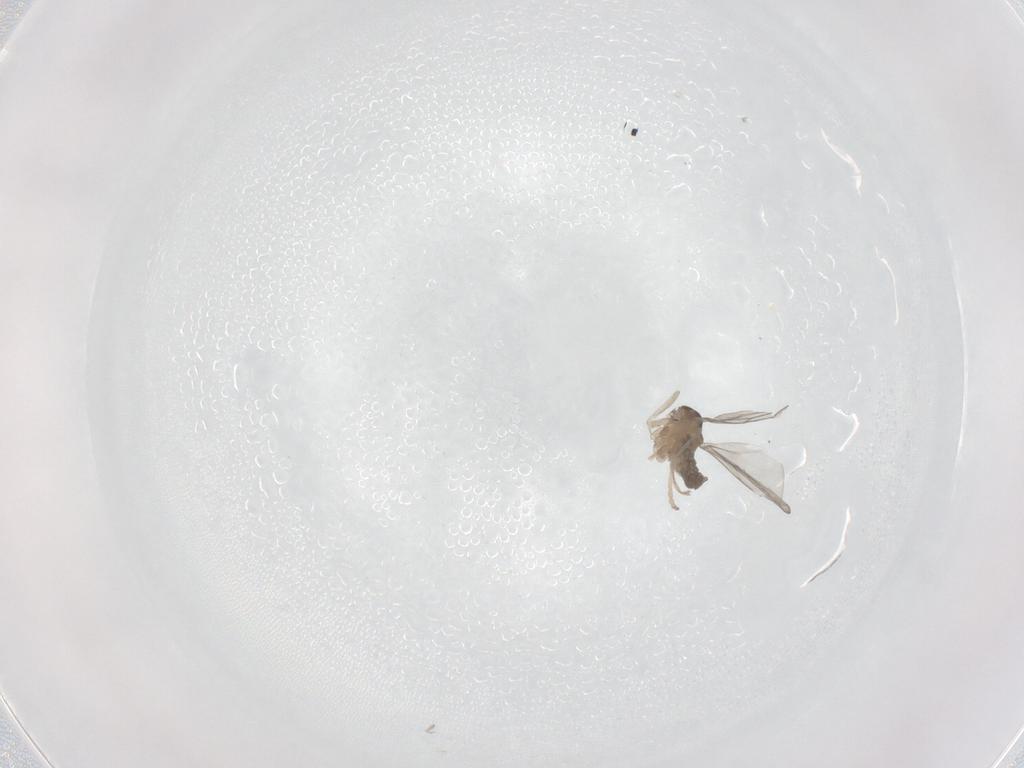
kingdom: Animalia
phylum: Arthropoda
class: Insecta
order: Diptera
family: Cecidomyiidae
